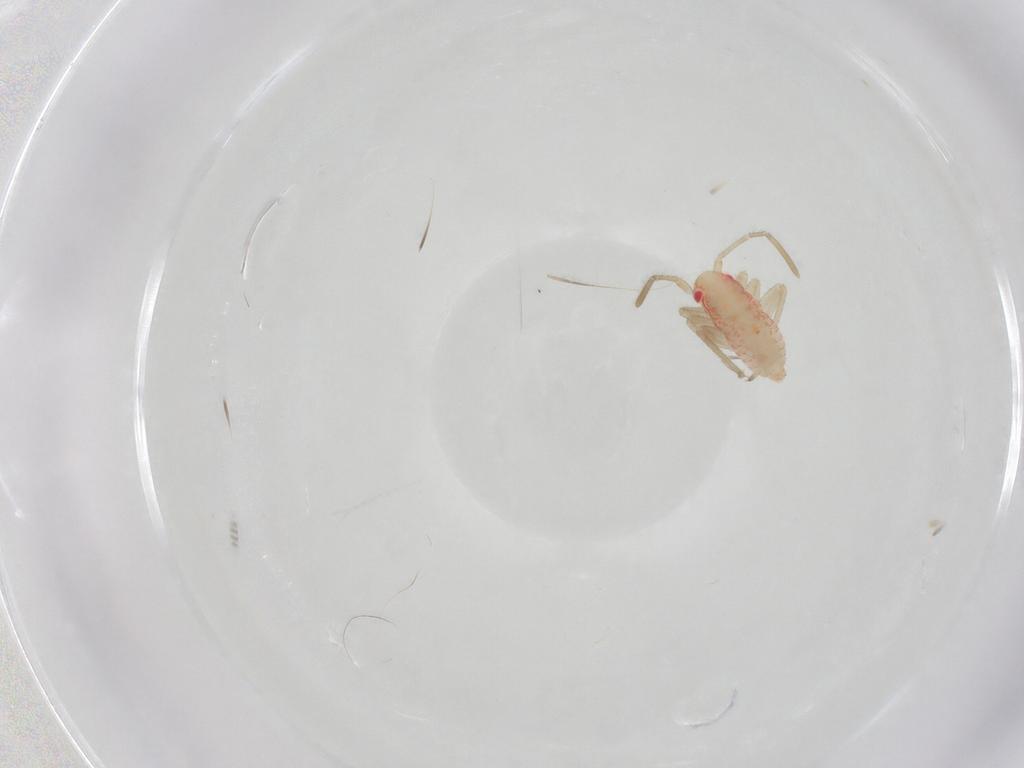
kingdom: Animalia
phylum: Arthropoda
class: Insecta
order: Hemiptera
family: Miridae
